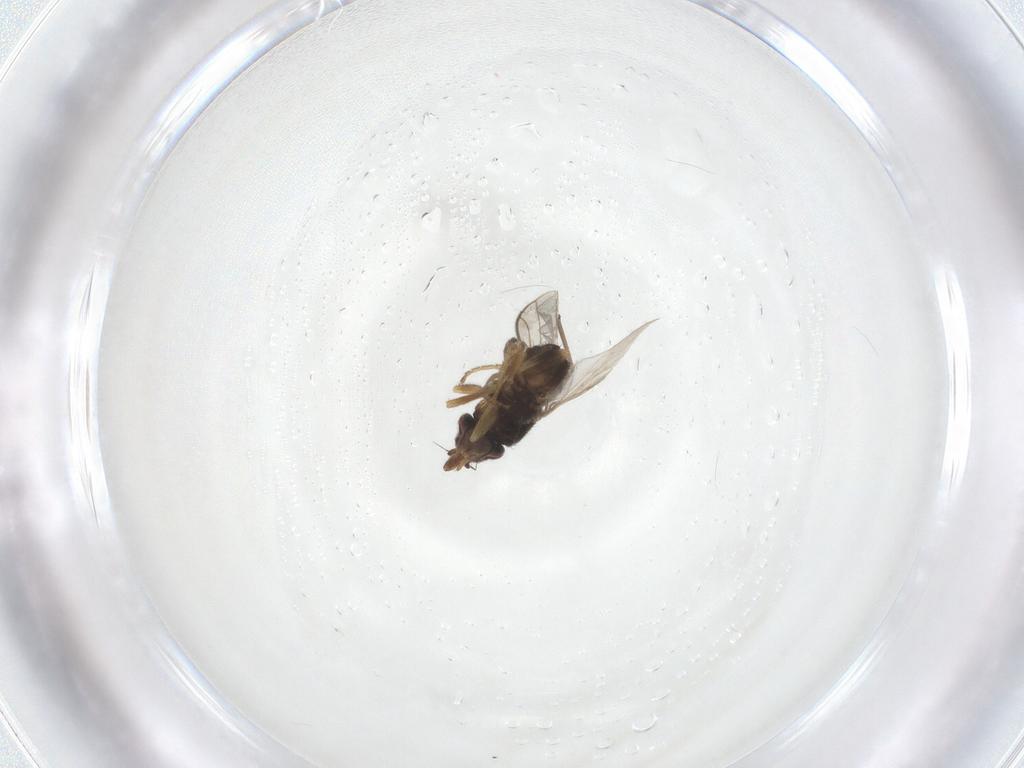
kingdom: Animalia
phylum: Arthropoda
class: Insecta
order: Diptera
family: Chloropidae
